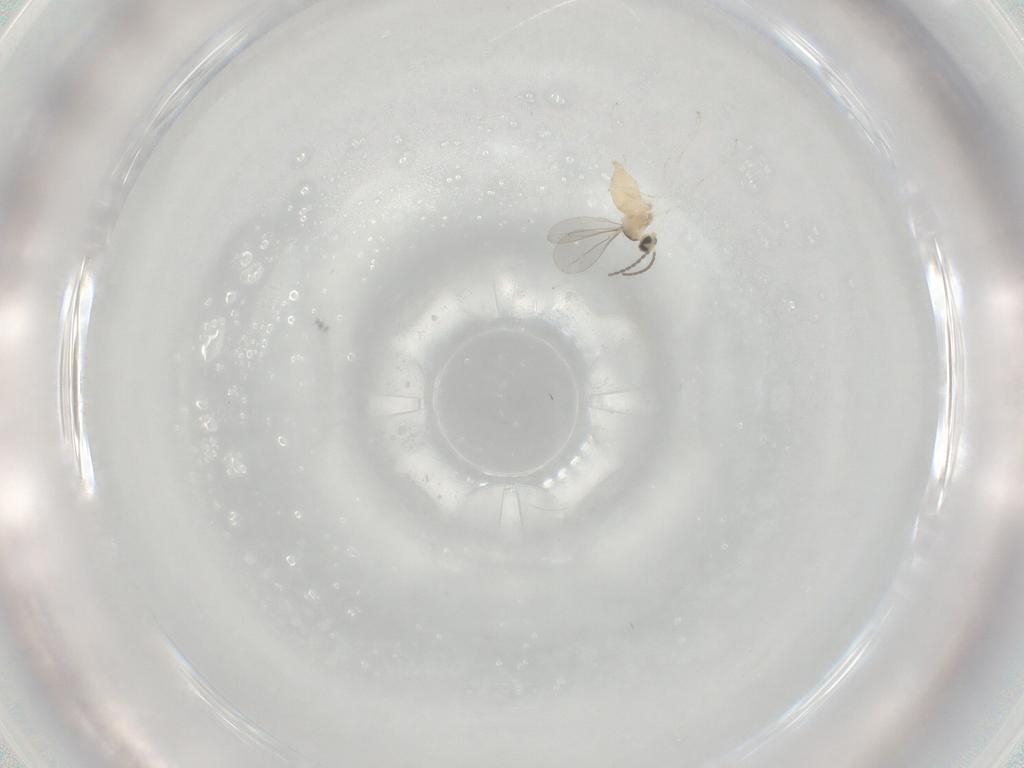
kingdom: Animalia
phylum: Arthropoda
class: Insecta
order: Diptera
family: Cecidomyiidae
